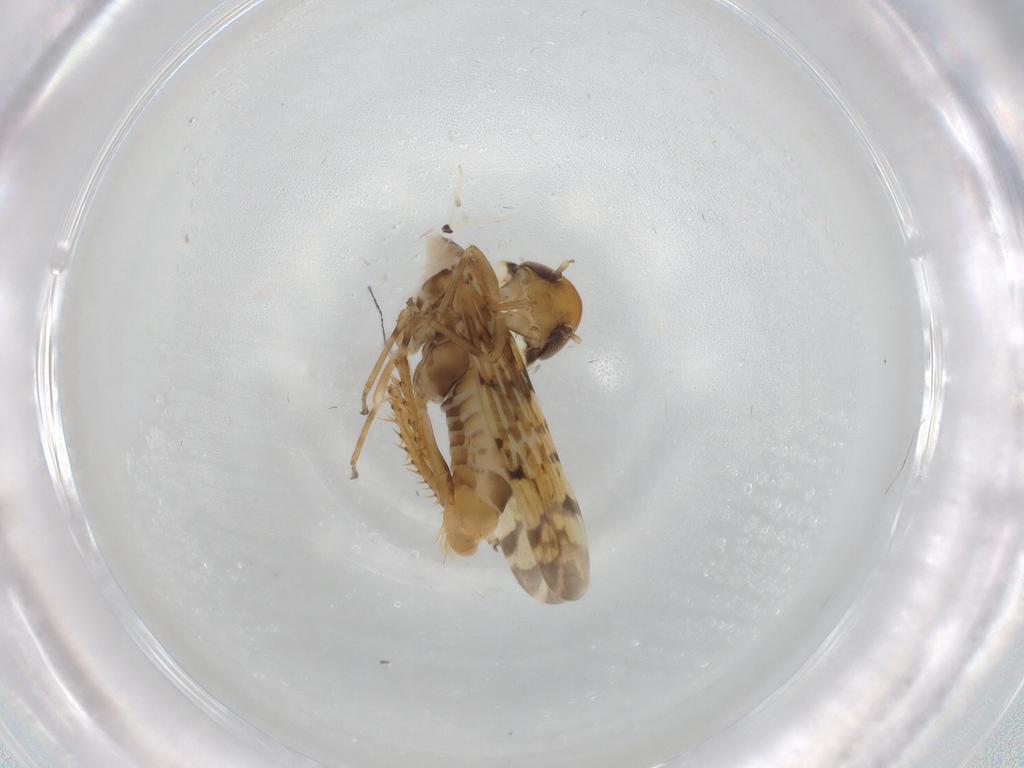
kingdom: Animalia
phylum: Arthropoda
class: Insecta
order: Hemiptera
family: Cicadellidae
